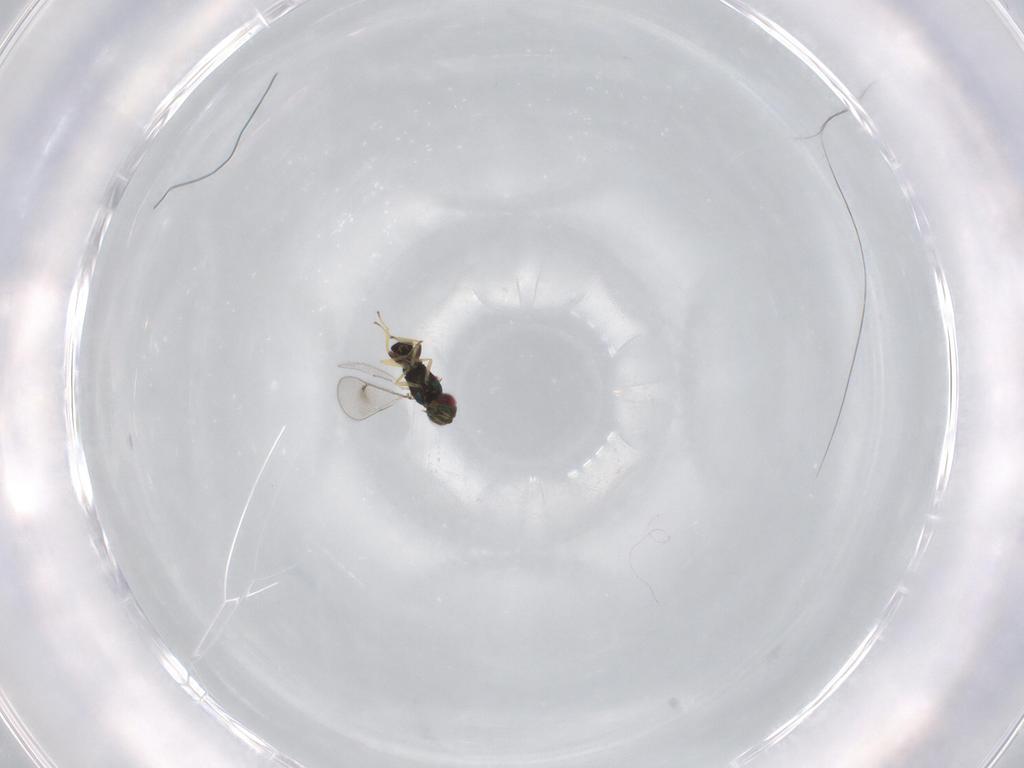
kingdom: Animalia
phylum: Arthropoda
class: Insecta
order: Hymenoptera
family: Eulophidae
